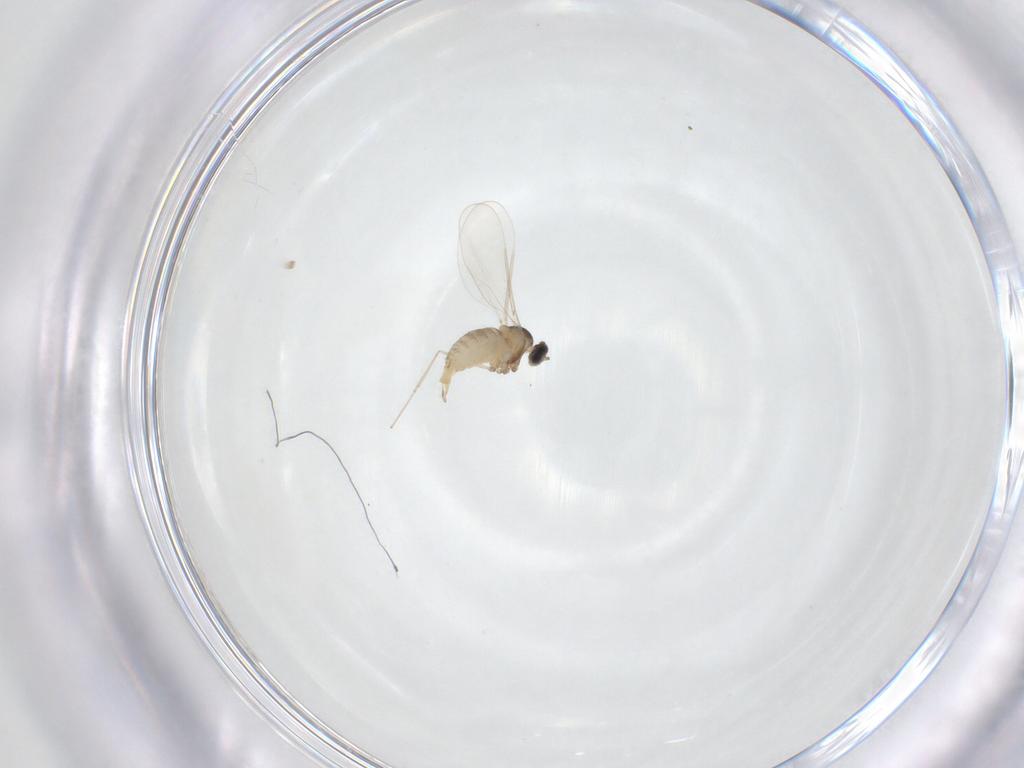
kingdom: Animalia
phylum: Arthropoda
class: Insecta
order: Diptera
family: Cecidomyiidae
